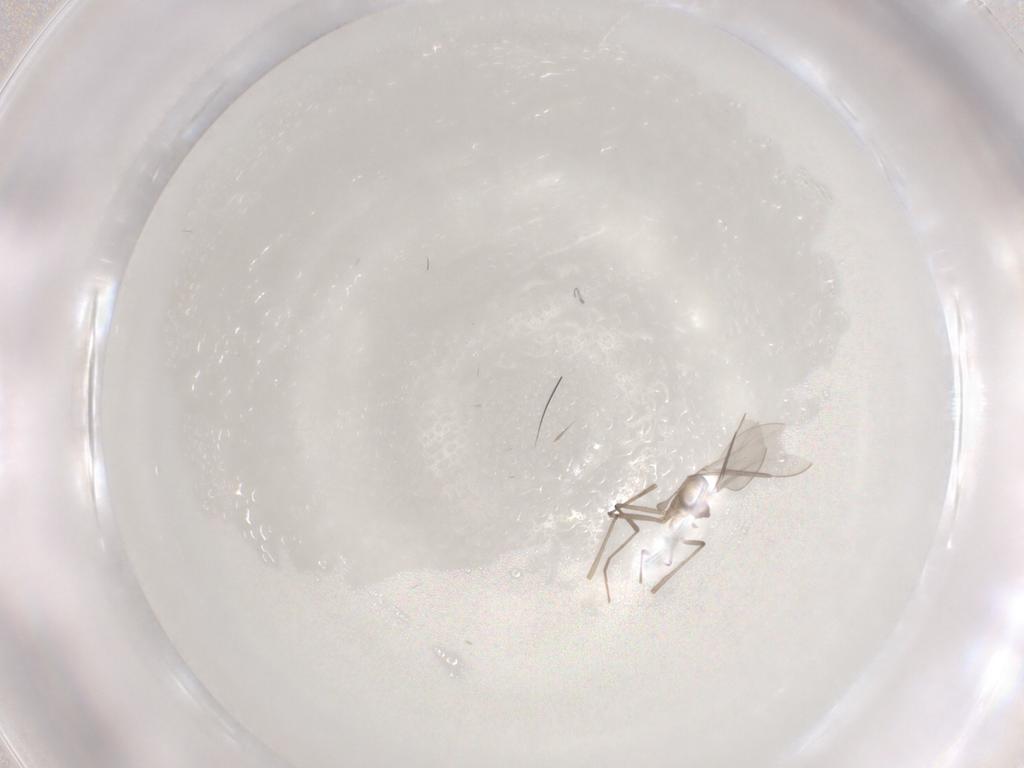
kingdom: Animalia
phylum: Arthropoda
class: Insecta
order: Diptera
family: Cecidomyiidae
